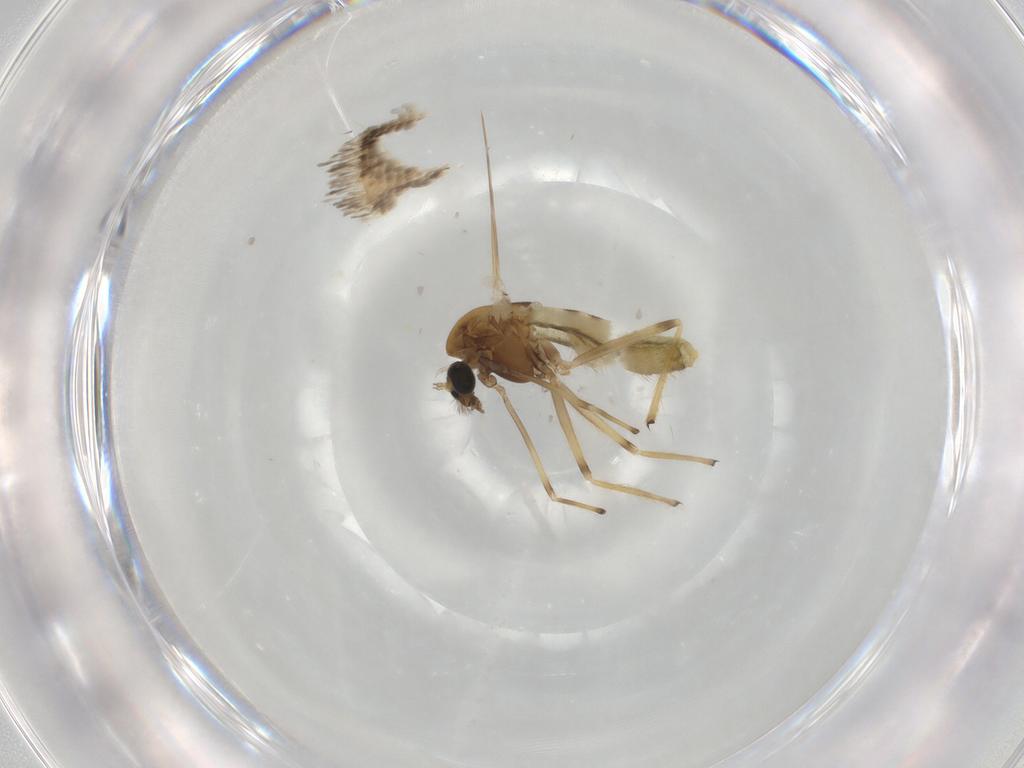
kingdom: Animalia
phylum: Arthropoda
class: Insecta
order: Diptera
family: Chironomidae
